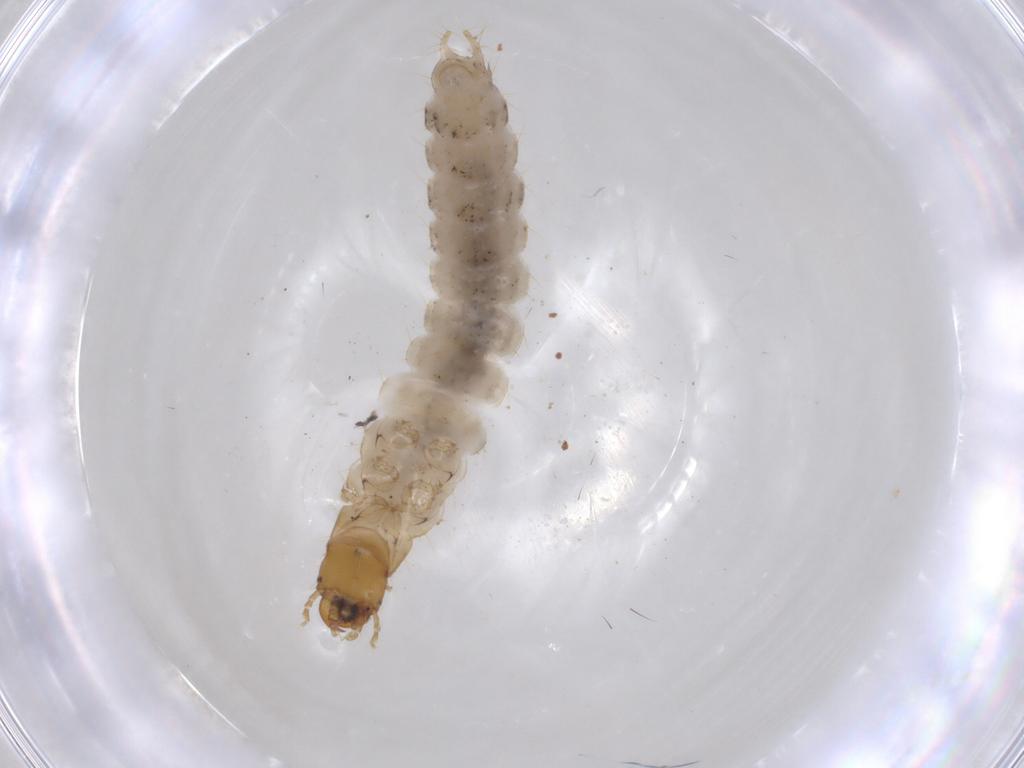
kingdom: Animalia
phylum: Arthropoda
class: Insecta
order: Coleoptera
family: Carabidae
